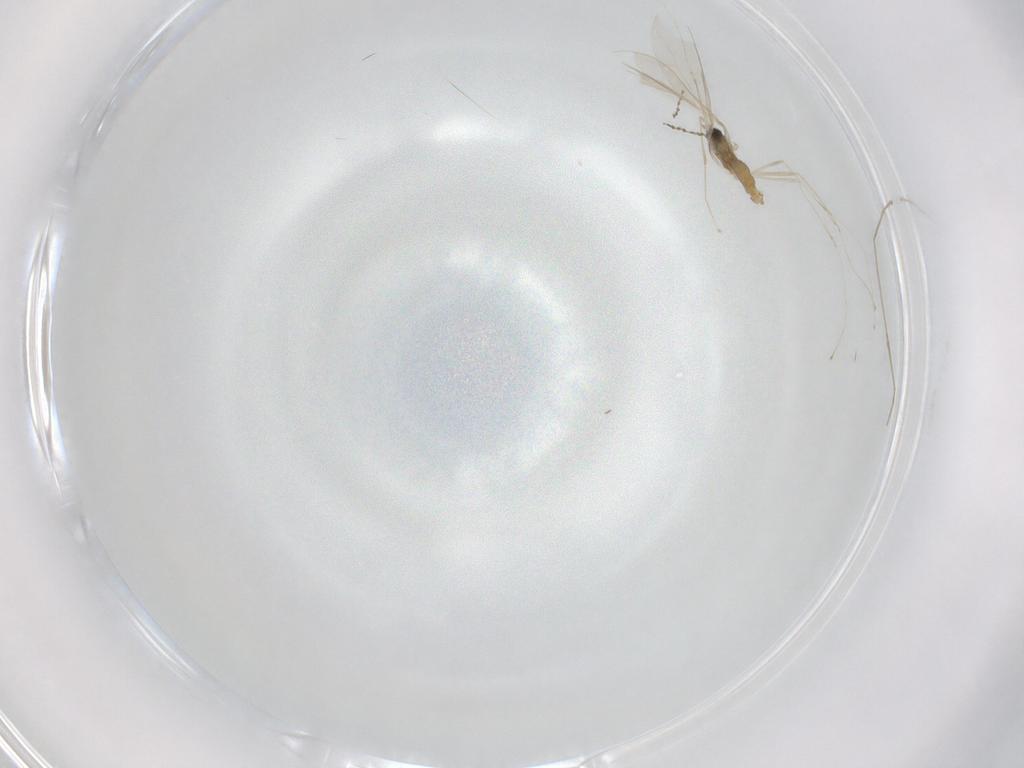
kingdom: Animalia
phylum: Arthropoda
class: Insecta
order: Diptera
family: Cecidomyiidae
